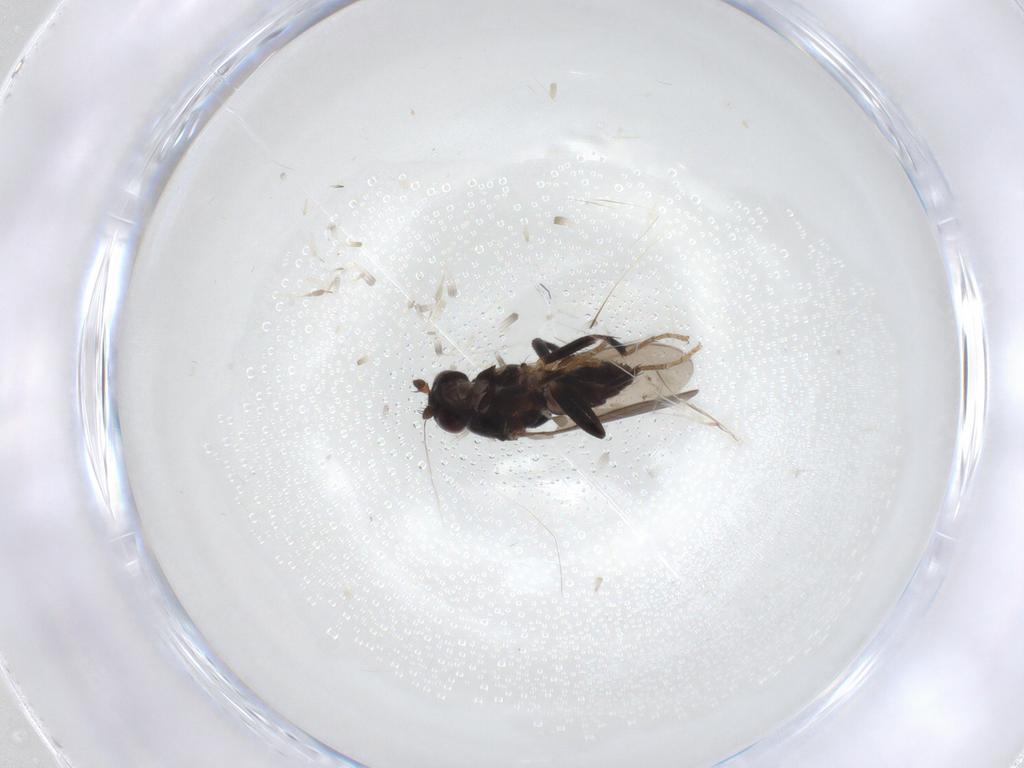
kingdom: Animalia
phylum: Arthropoda
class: Insecta
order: Diptera
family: Sphaeroceridae
